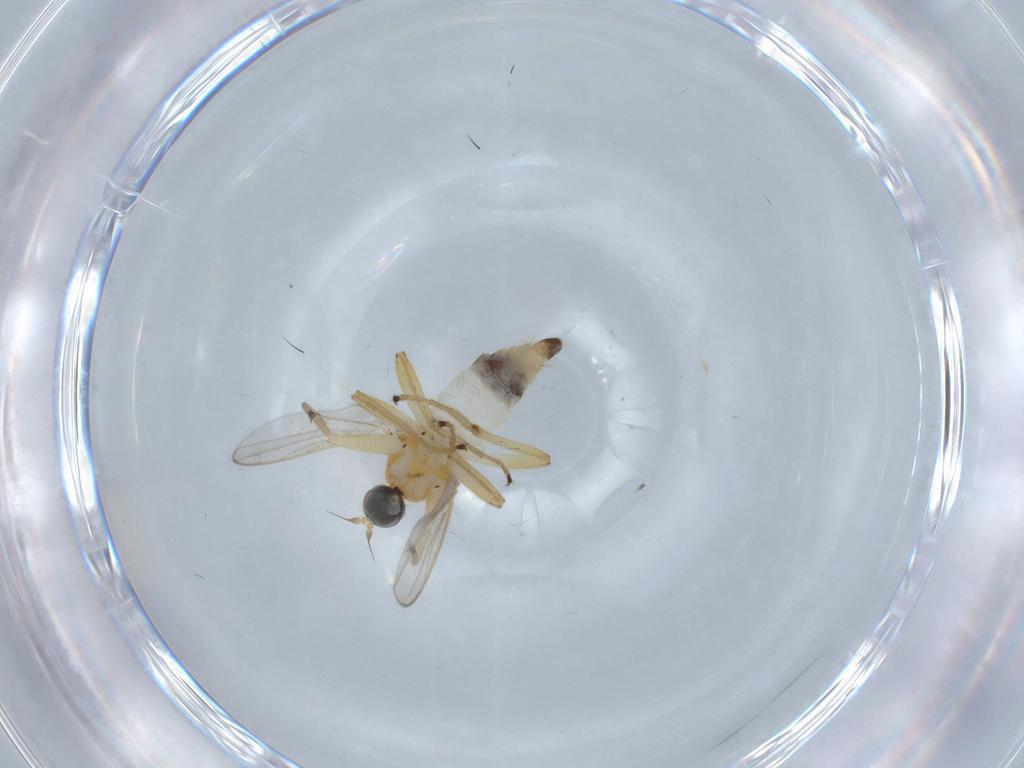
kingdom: Animalia
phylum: Arthropoda
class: Insecta
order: Diptera
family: Hybotidae
